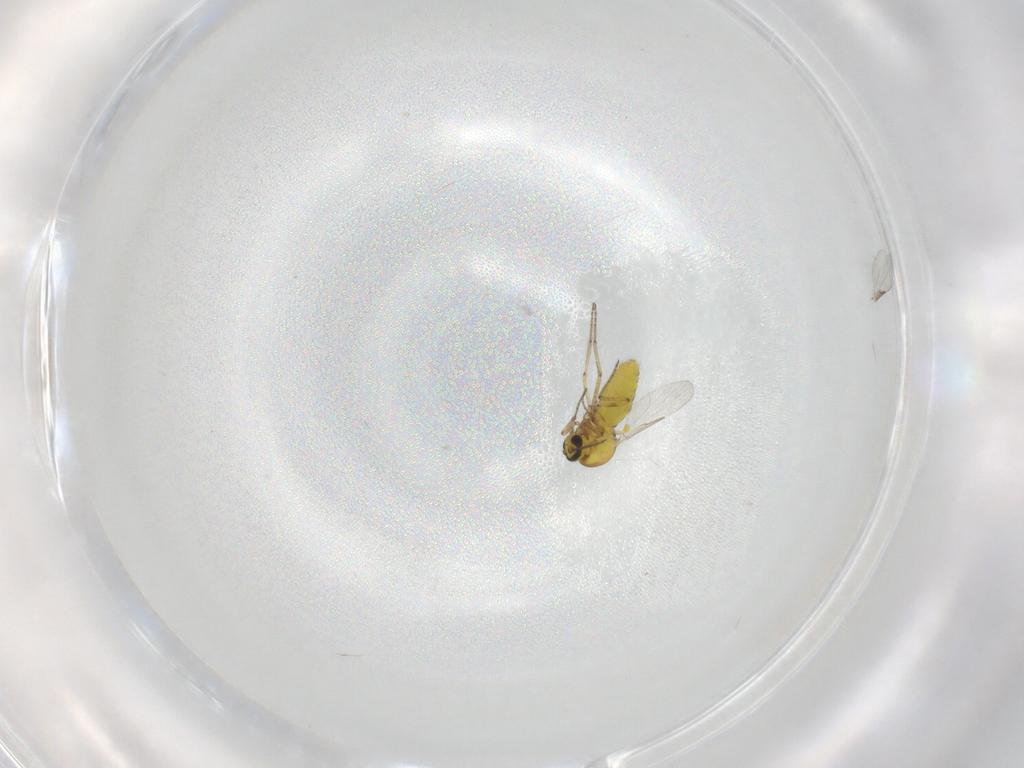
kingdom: Animalia
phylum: Arthropoda
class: Insecta
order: Diptera
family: Ceratopogonidae
